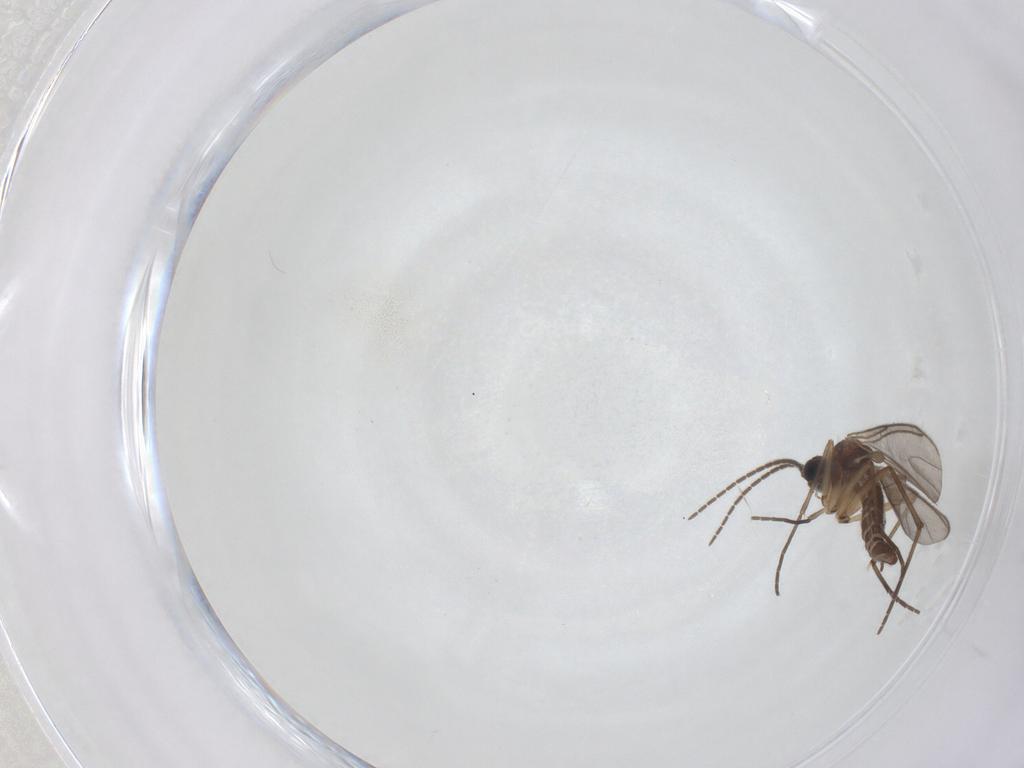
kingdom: Animalia
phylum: Arthropoda
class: Insecta
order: Diptera
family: Sciaridae
